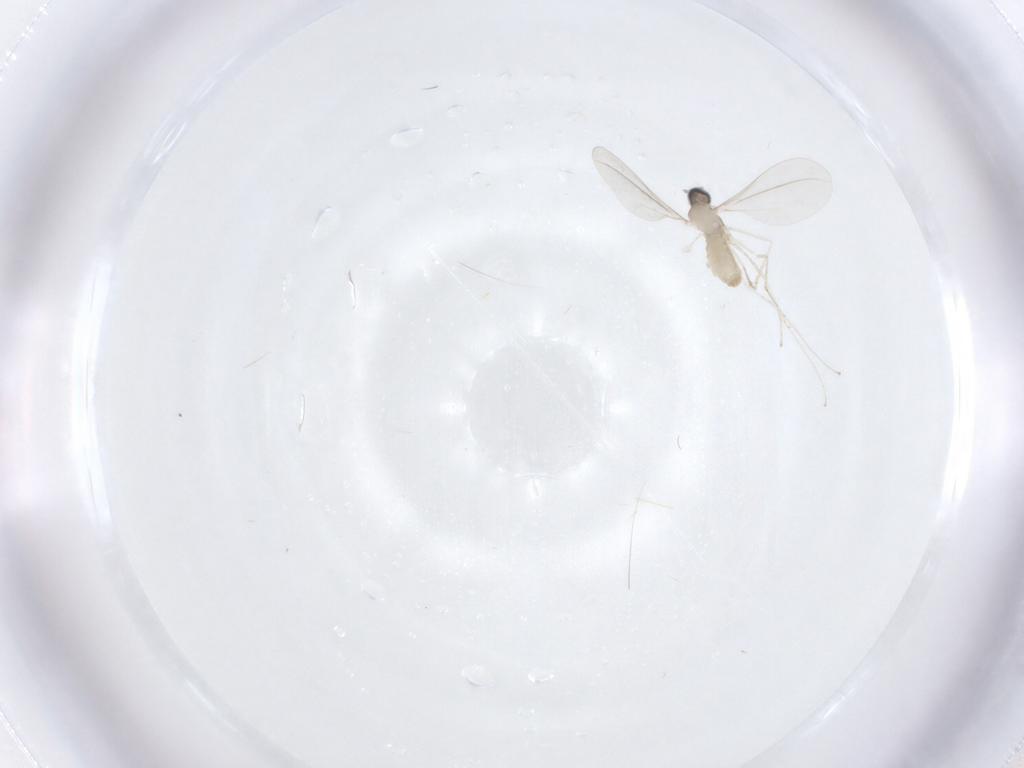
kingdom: Animalia
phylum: Arthropoda
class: Insecta
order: Diptera
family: Cecidomyiidae
